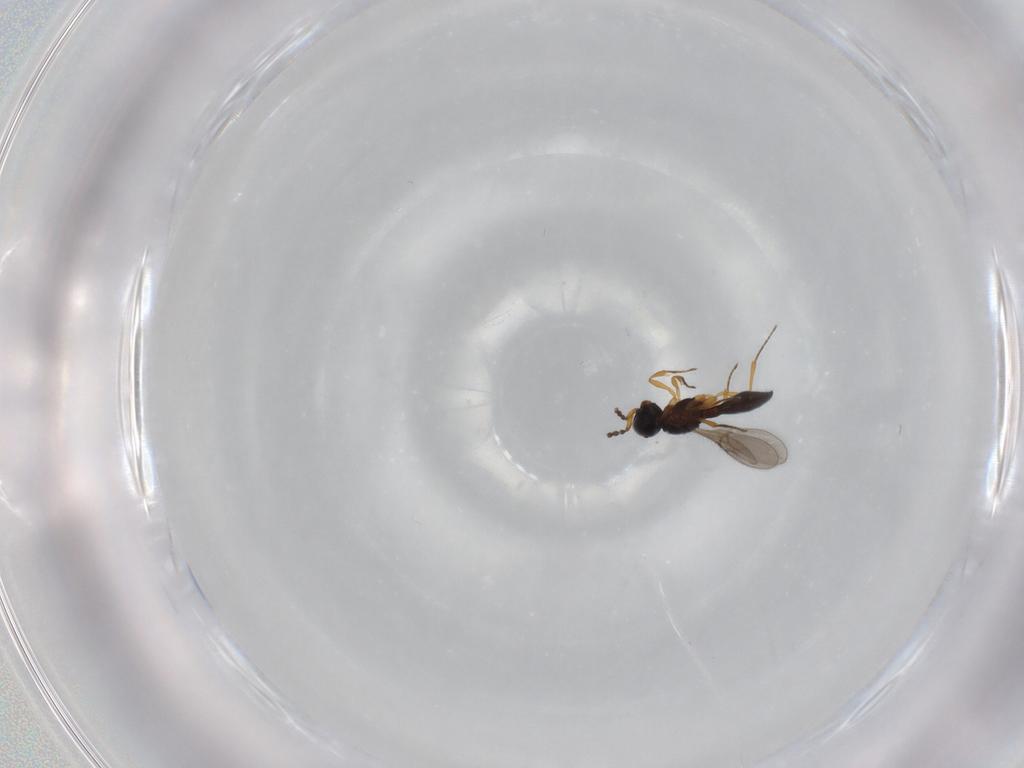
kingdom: Animalia
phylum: Arthropoda
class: Insecta
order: Hymenoptera
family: Scelionidae
